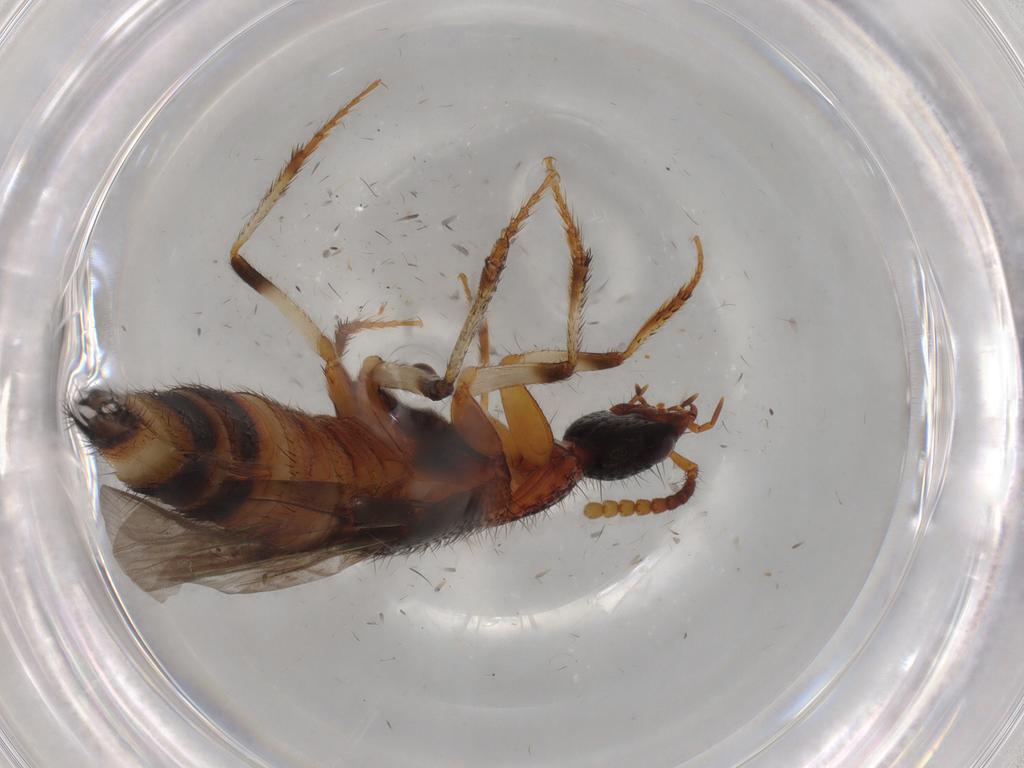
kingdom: Animalia
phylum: Arthropoda
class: Insecta
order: Coleoptera
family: Staphylinidae
